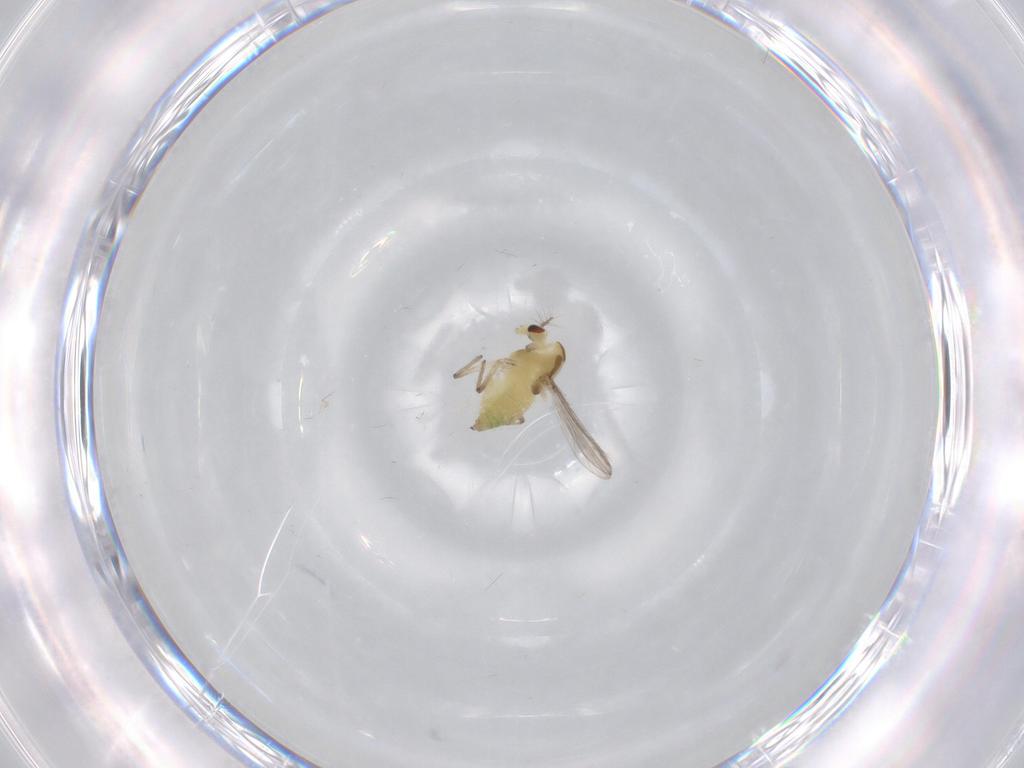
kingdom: Animalia
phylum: Arthropoda
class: Insecta
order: Diptera
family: Chironomidae
